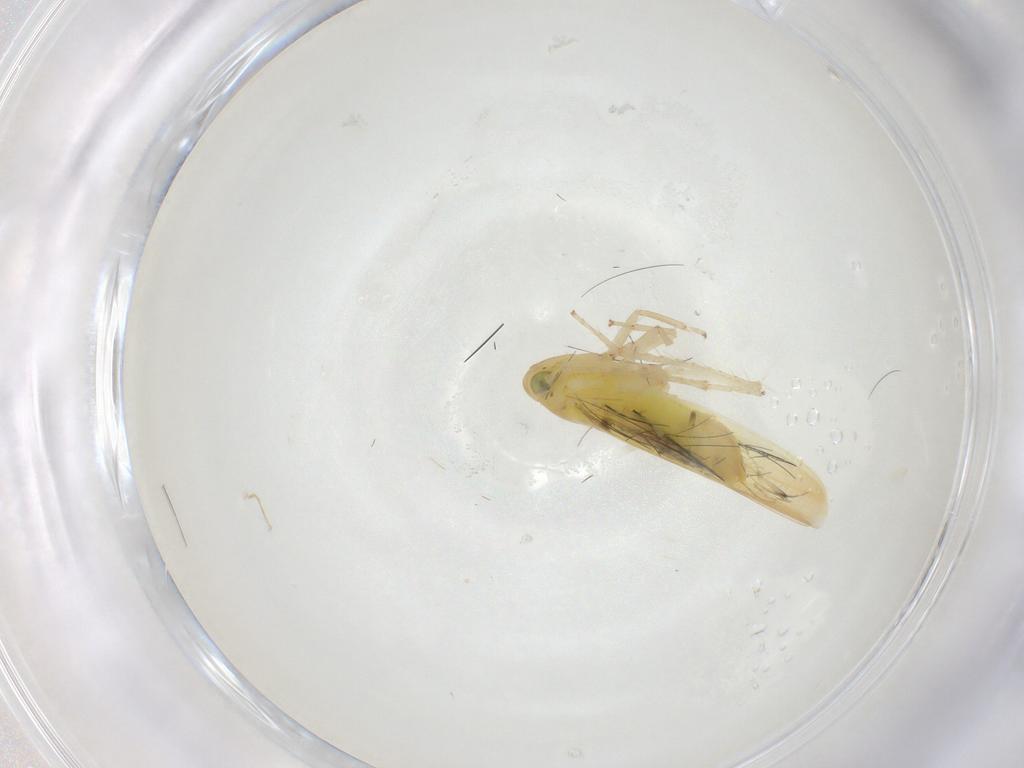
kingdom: Animalia
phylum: Arthropoda
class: Insecta
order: Hemiptera
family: Cicadellidae
